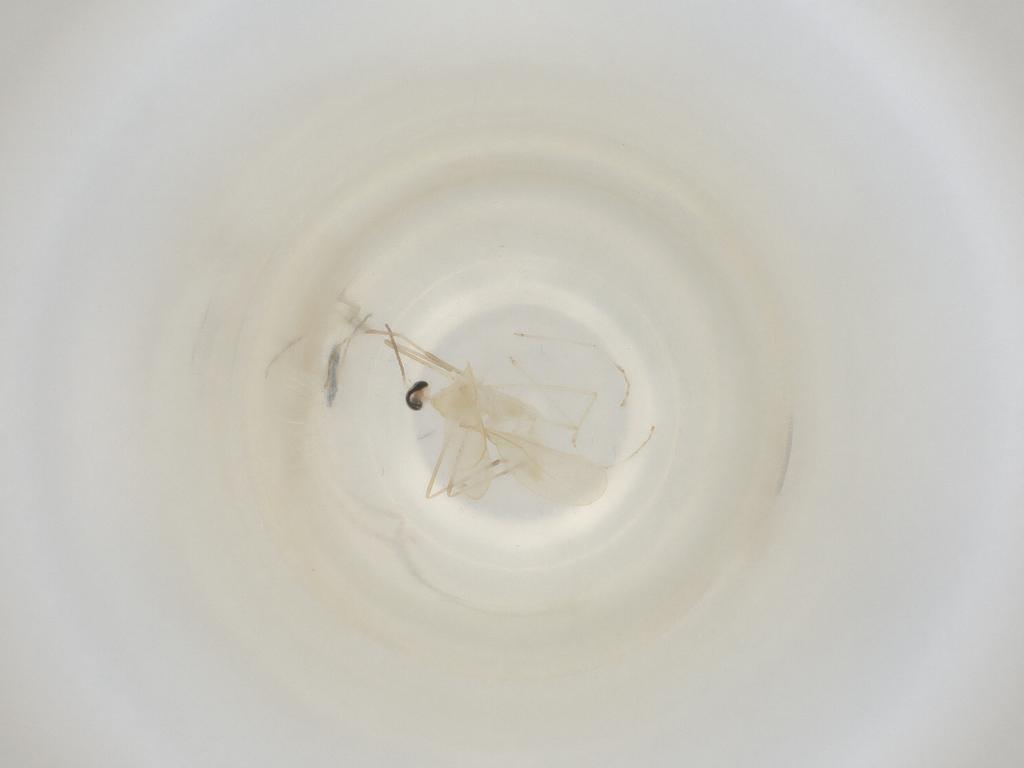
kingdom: Animalia
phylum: Arthropoda
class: Insecta
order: Diptera
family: Cecidomyiidae
